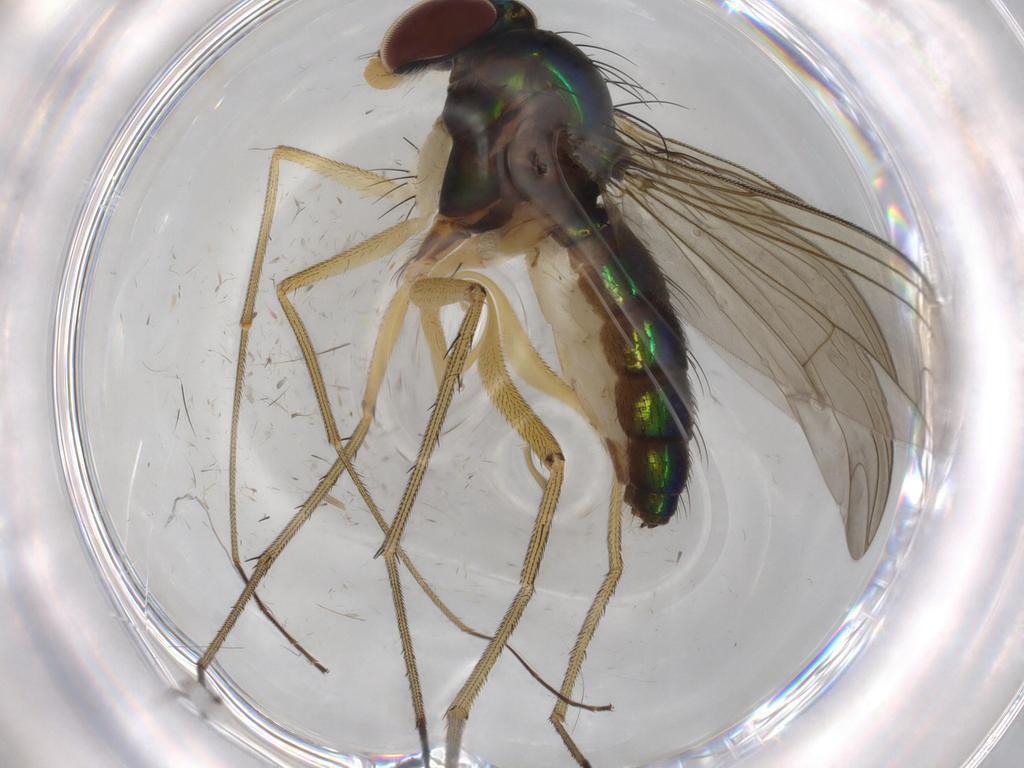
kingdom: Animalia
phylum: Arthropoda
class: Insecta
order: Diptera
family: Dolichopodidae
